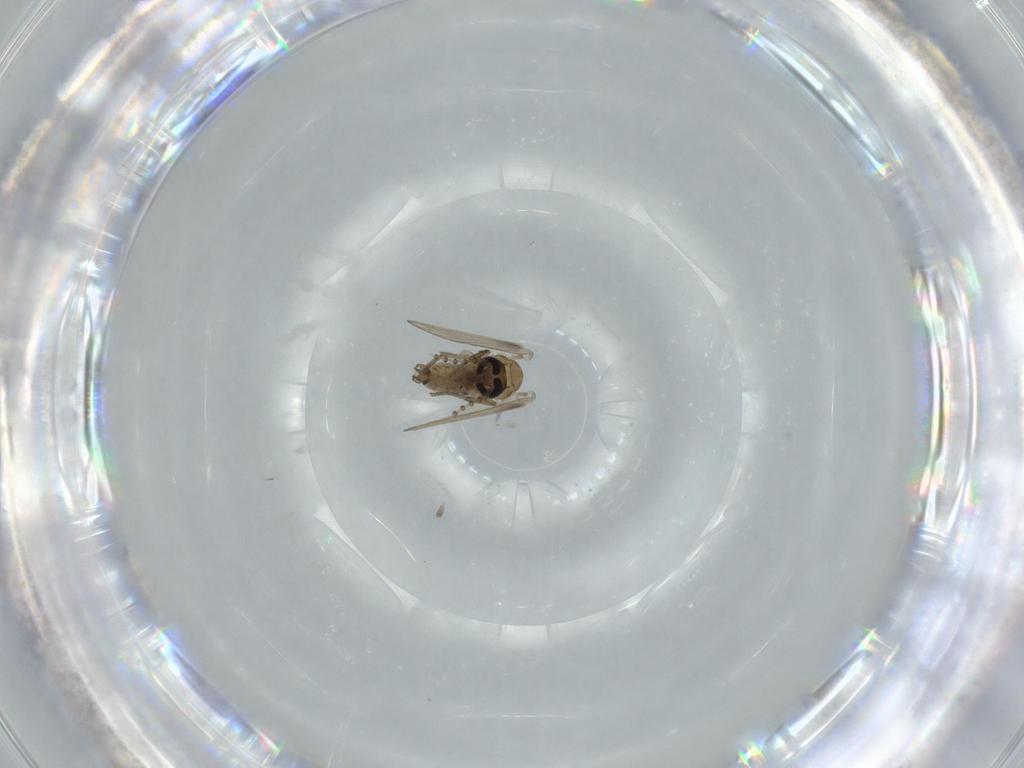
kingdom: Animalia
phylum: Arthropoda
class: Insecta
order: Diptera
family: Psychodidae
